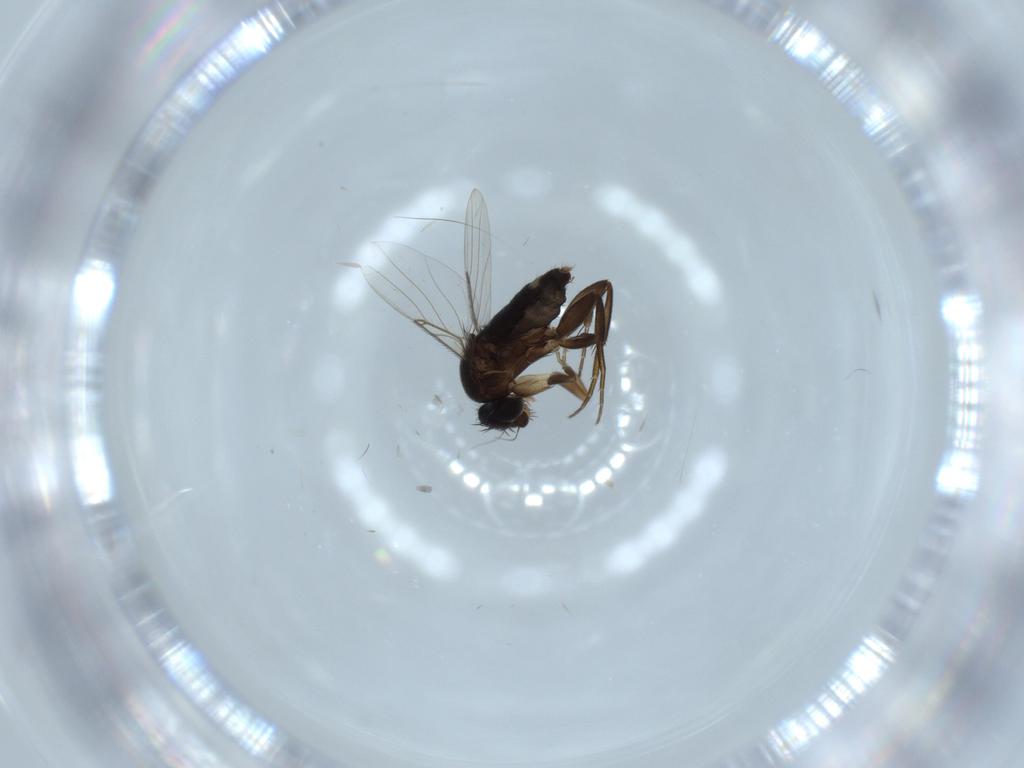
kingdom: Animalia
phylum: Arthropoda
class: Insecta
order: Diptera
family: Phoridae
